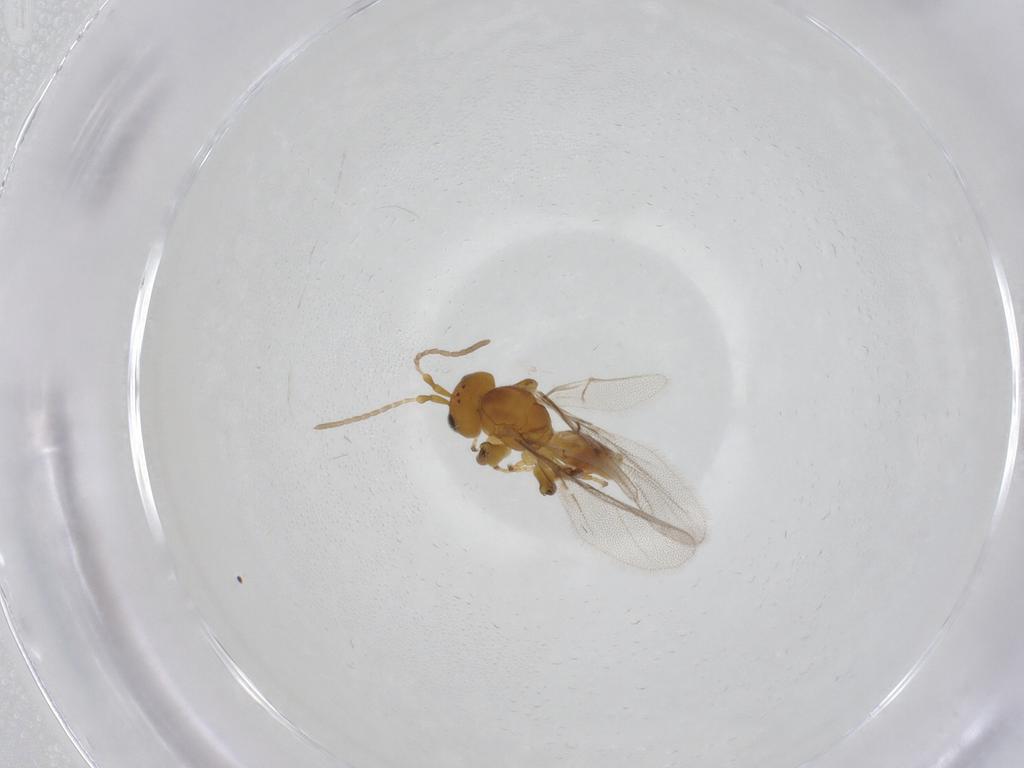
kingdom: Animalia
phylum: Arthropoda
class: Insecta
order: Hymenoptera
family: Cynipidae
